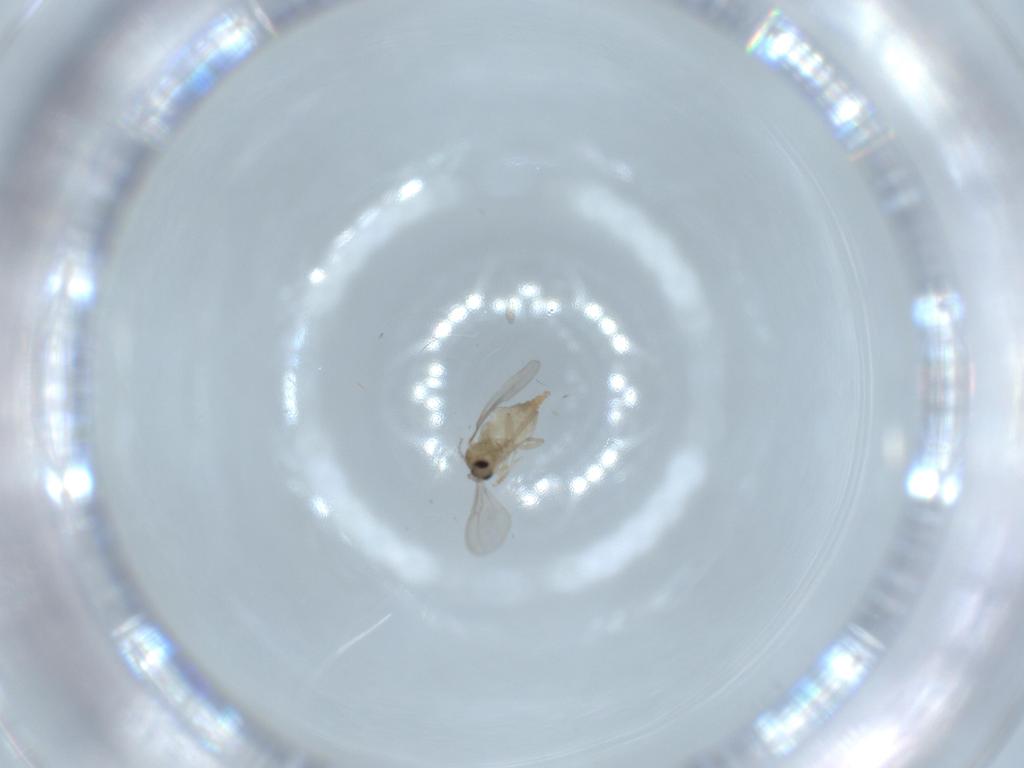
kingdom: Animalia
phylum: Arthropoda
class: Insecta
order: Diptera
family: Cecidomyiidae
